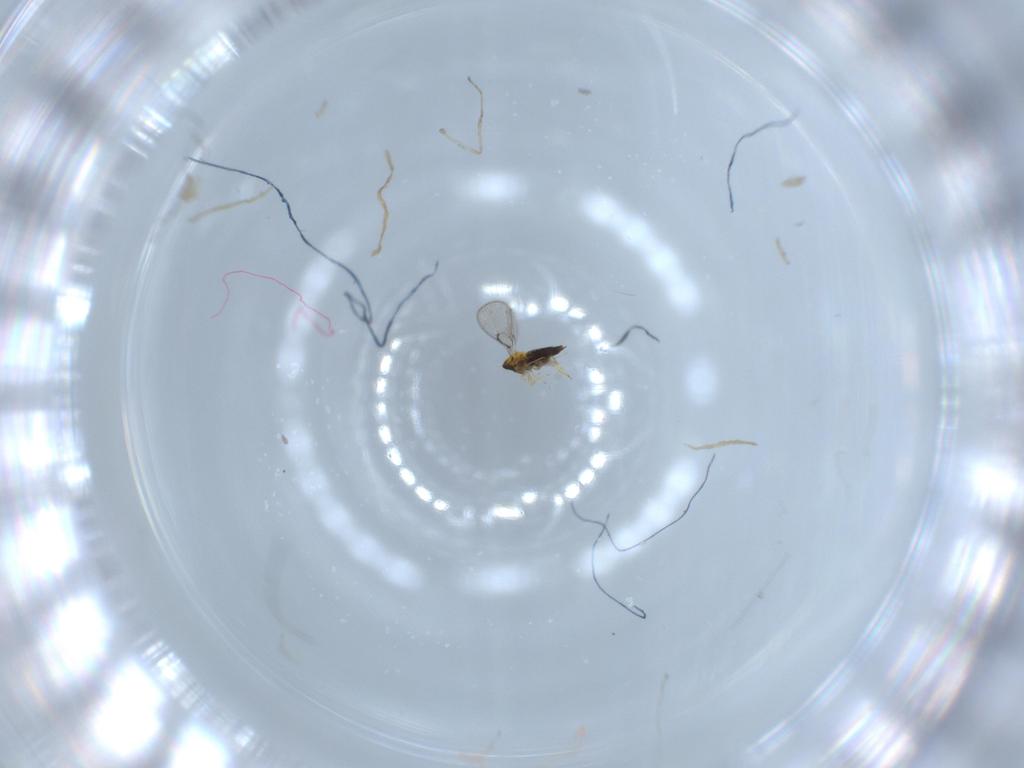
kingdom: Animalia
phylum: Arthropoda
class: Insecta
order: Hymenoptera
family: Trichogrammatidae
